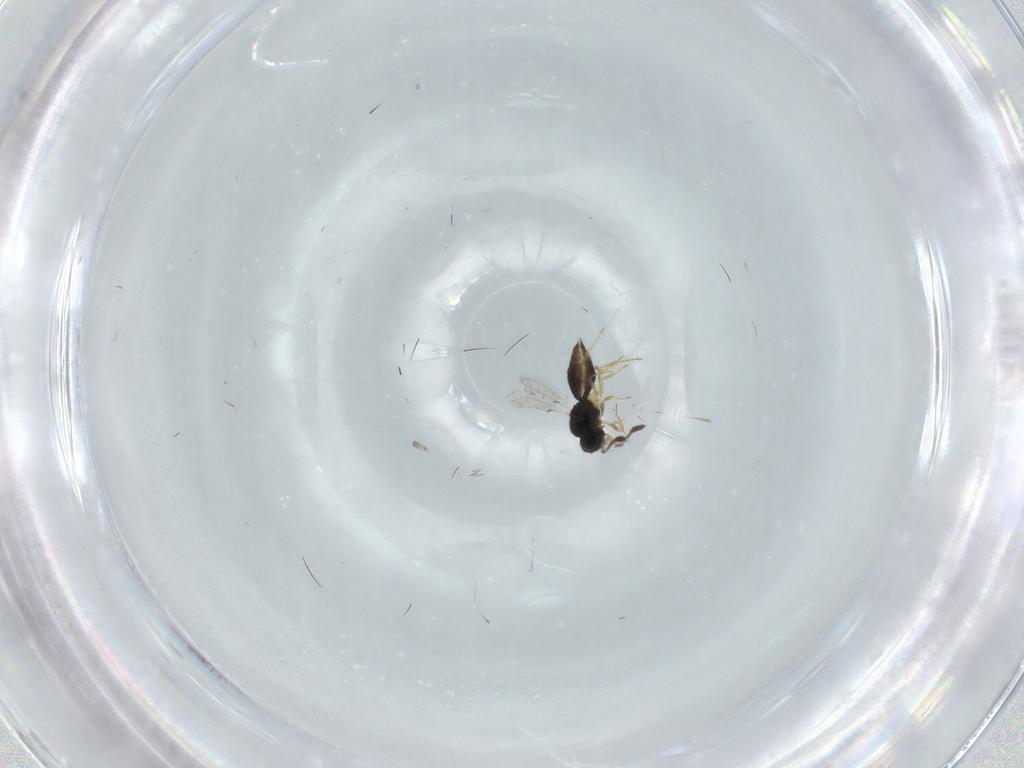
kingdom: Animalia
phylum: Arthropoda
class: Insecta
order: Hymenoptera
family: Scelionidae
